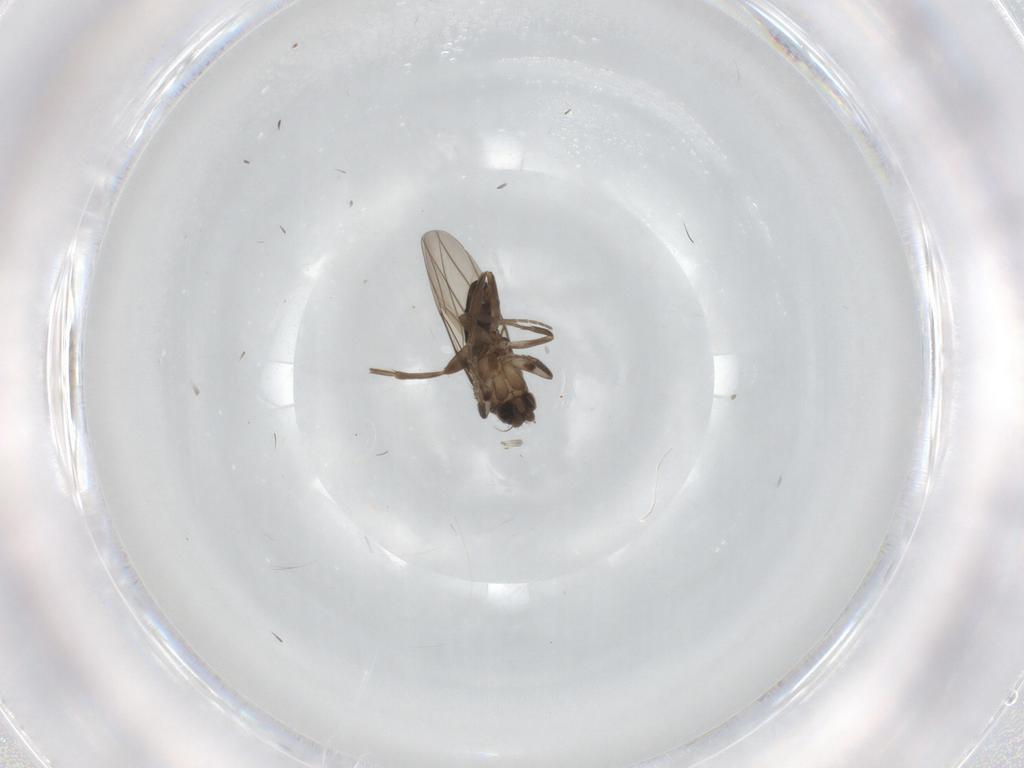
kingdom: Animalia
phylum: Arthropoda
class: Insecta
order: Diptera
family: Phoridae
